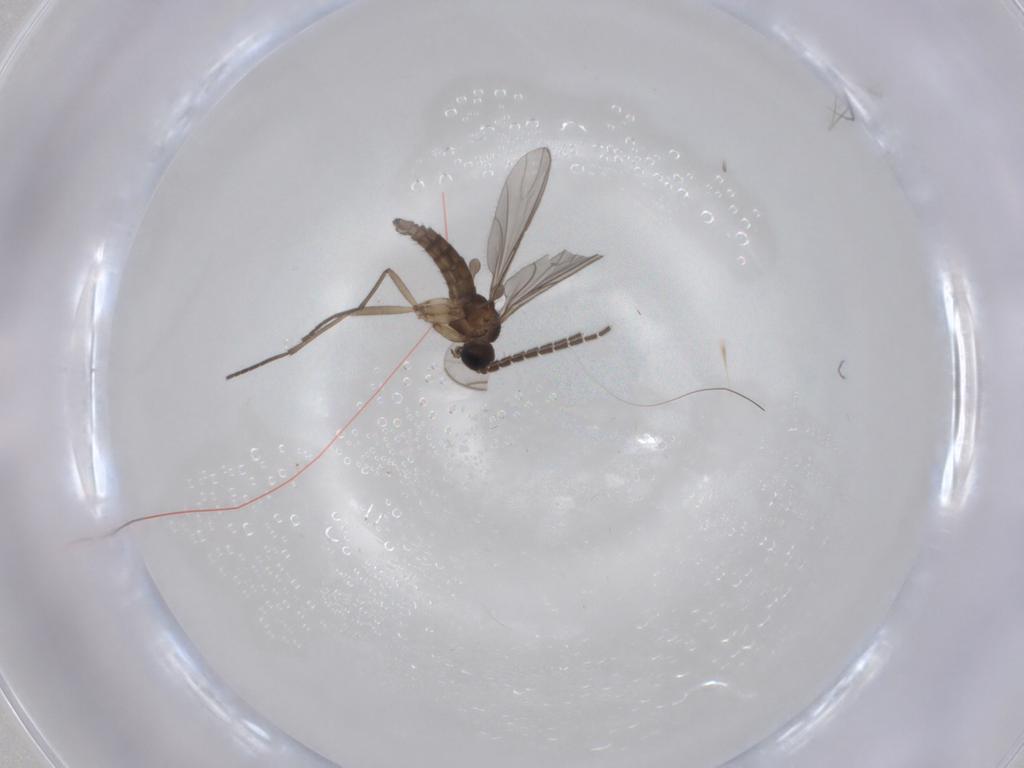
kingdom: Animalia
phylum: Arthropoda
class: Insecta
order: Diptera
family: Sciaridae
